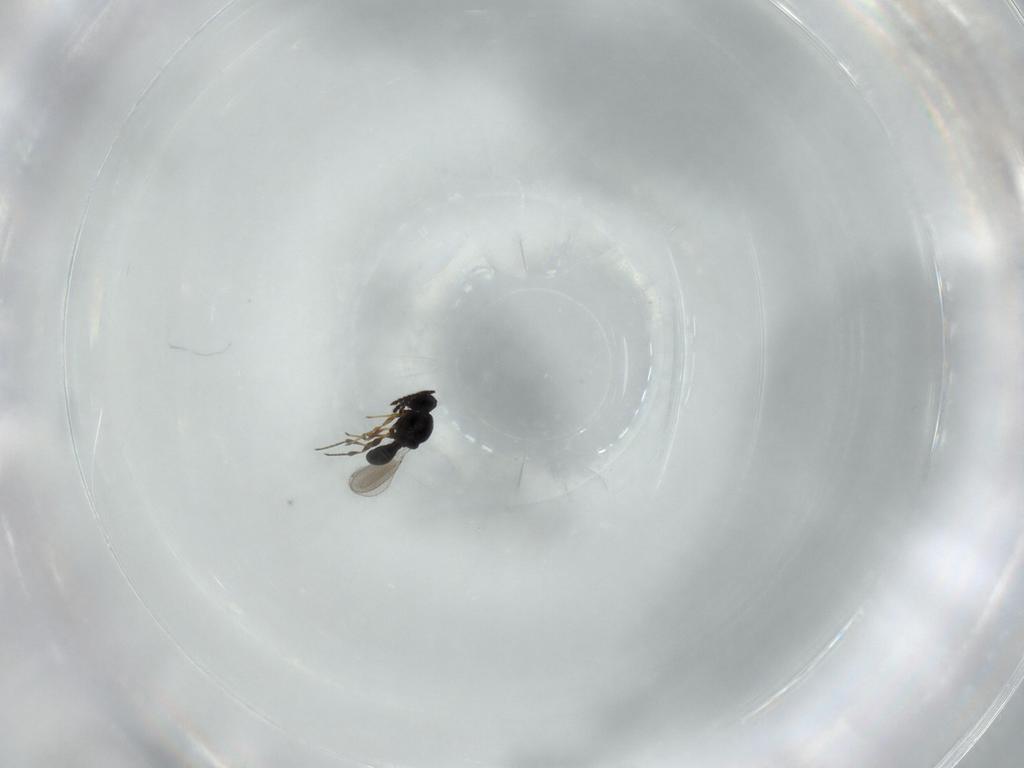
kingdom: Animalia
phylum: Arthropoda
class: Insecta
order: Hymenoptera
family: Platygastridae
